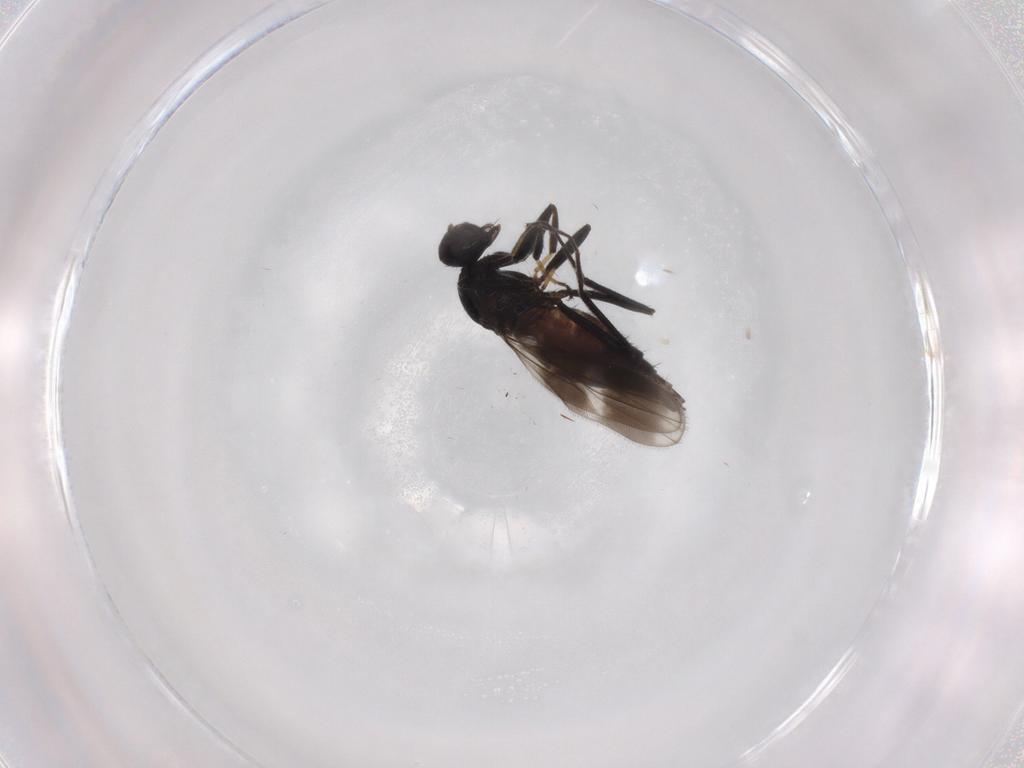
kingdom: Animalia
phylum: Arthropoda
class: Insecta
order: Diptera
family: Hybotidae
